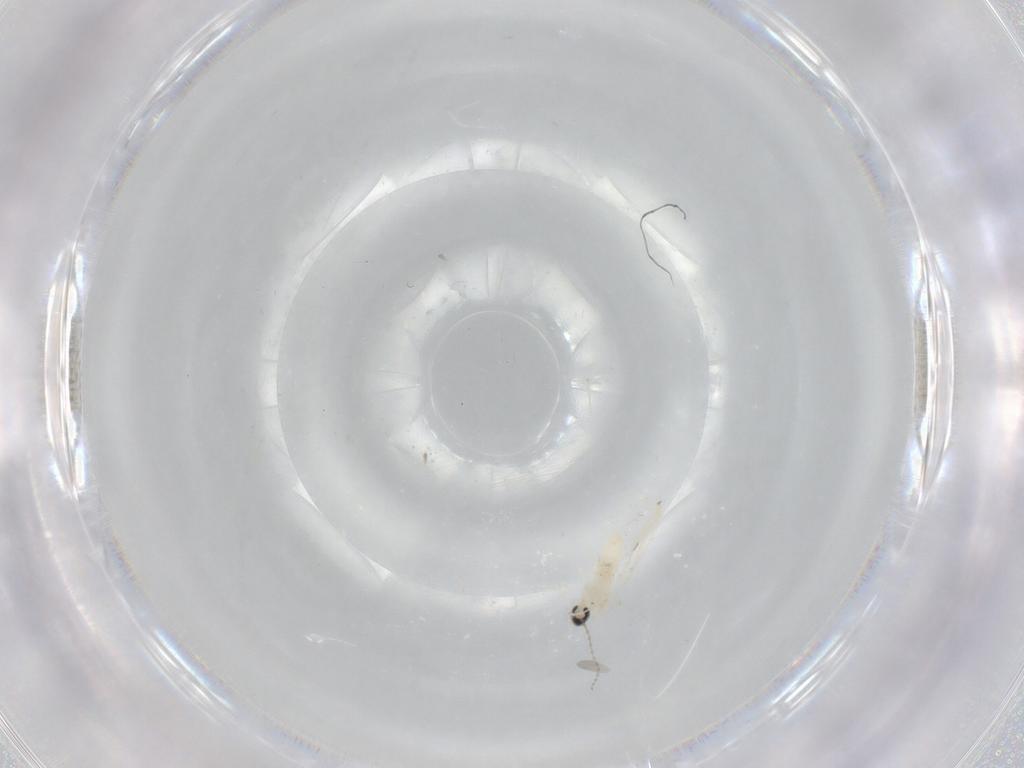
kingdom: Animalia
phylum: Arthropoda
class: Insecta
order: Diptera
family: Cecidomyiidae
